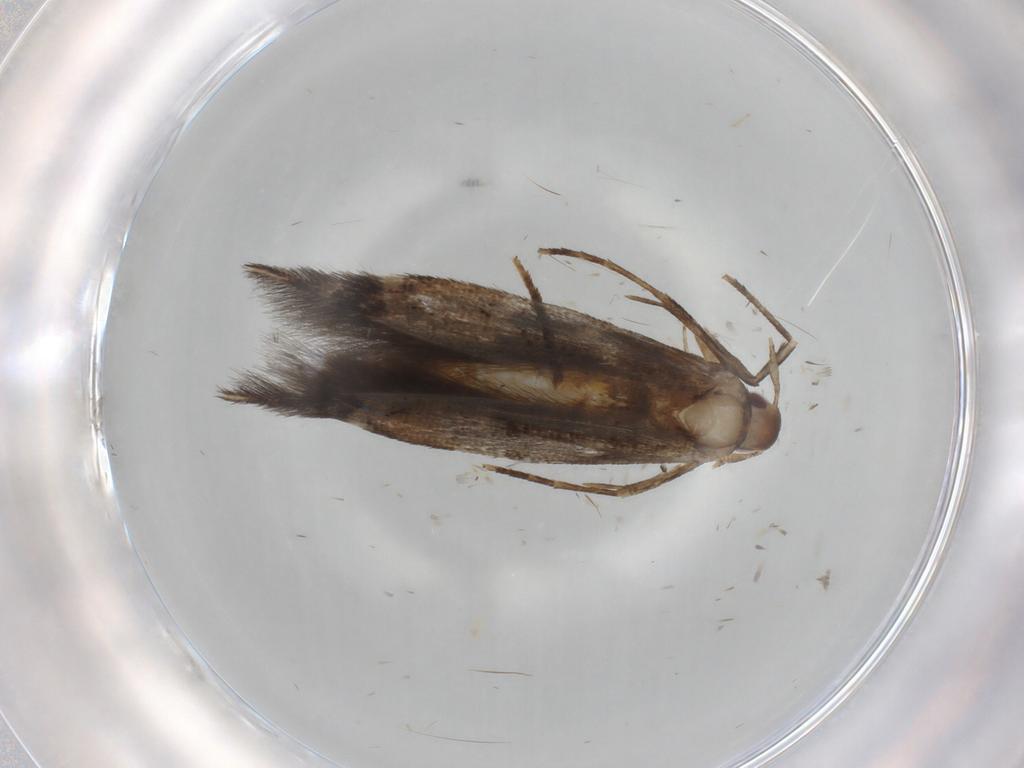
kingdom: Animalia
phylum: Arthropoda
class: Insecta
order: Lepidoptera
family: Cosmopterigidae
